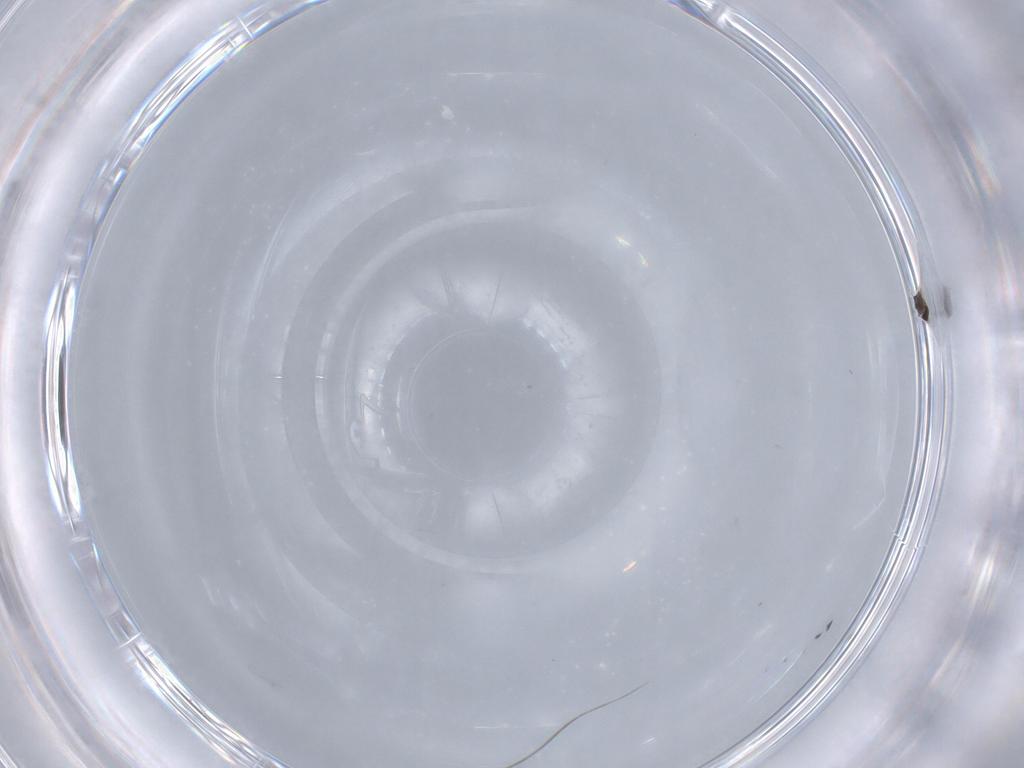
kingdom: Animalia
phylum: Arthropoda
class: Insecta
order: Hymenoptera
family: Mymaridae
